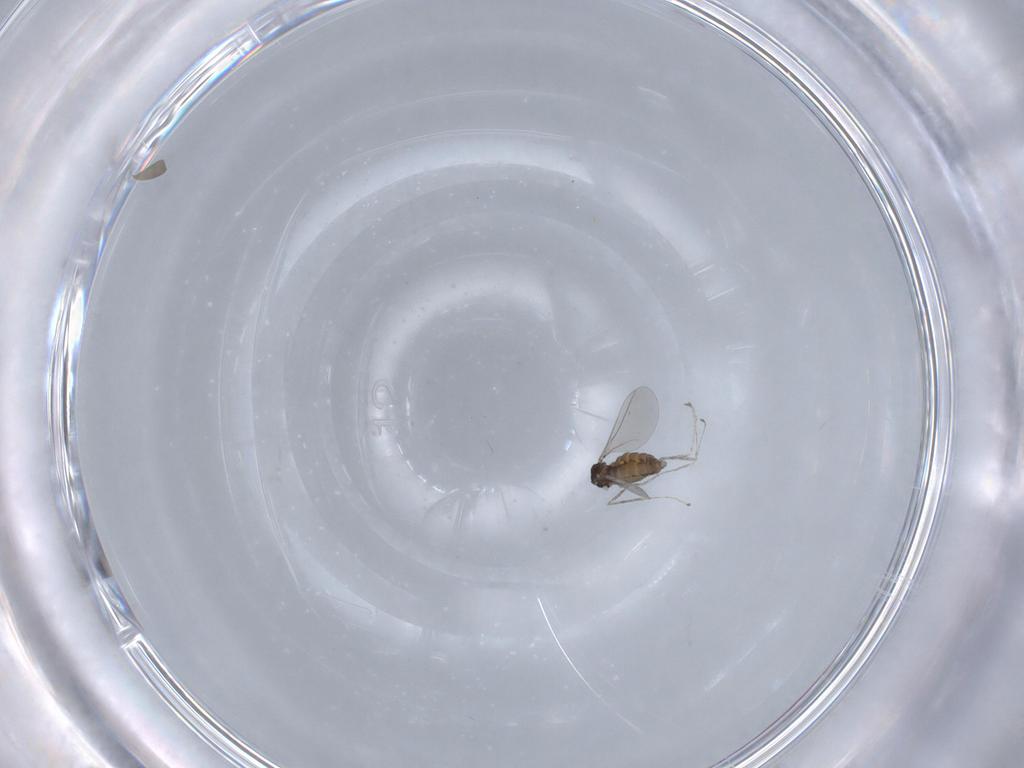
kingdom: Animalia
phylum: Arthropoda
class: Insecta
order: Diptera
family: Cecidomyiidae
